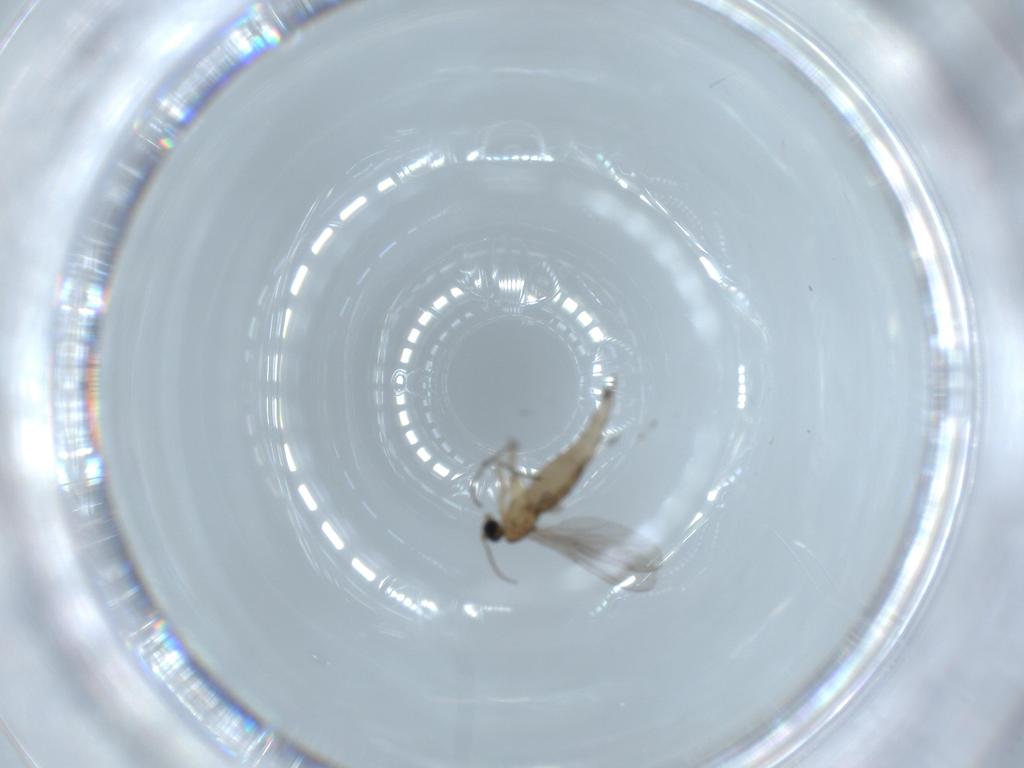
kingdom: Animalia
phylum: Arthropoda
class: Insecta
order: Diptera
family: Sciaridae
